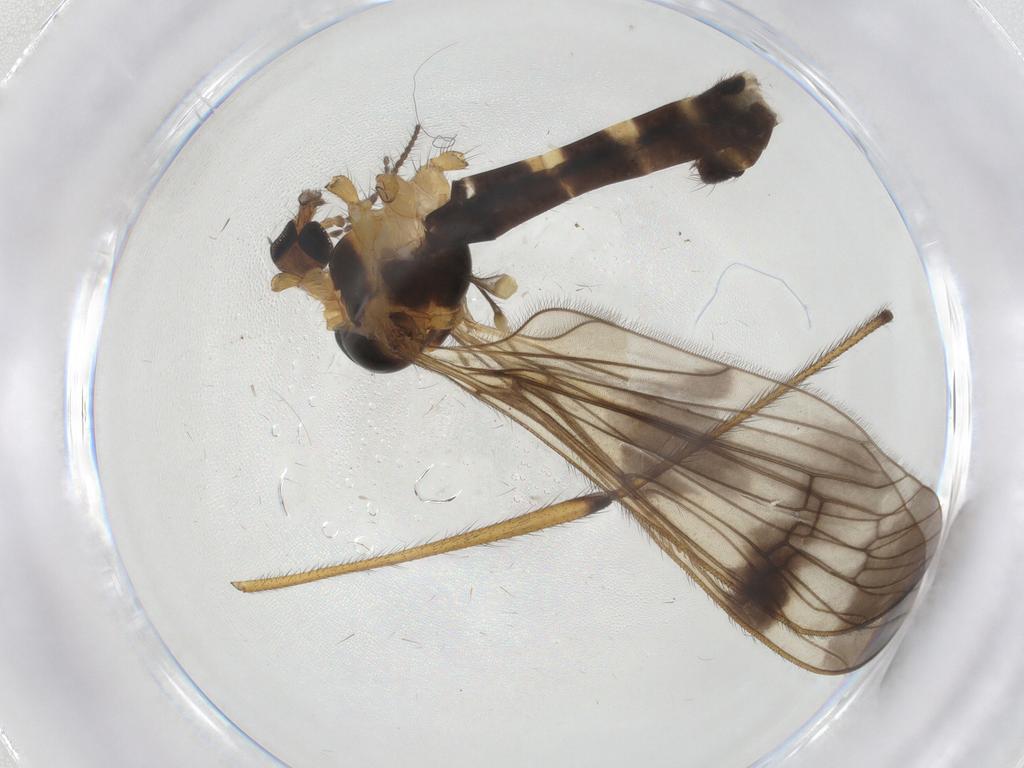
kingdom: Animalia
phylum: Arthropoda
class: Insecta
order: Diptera
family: Limoniidae
